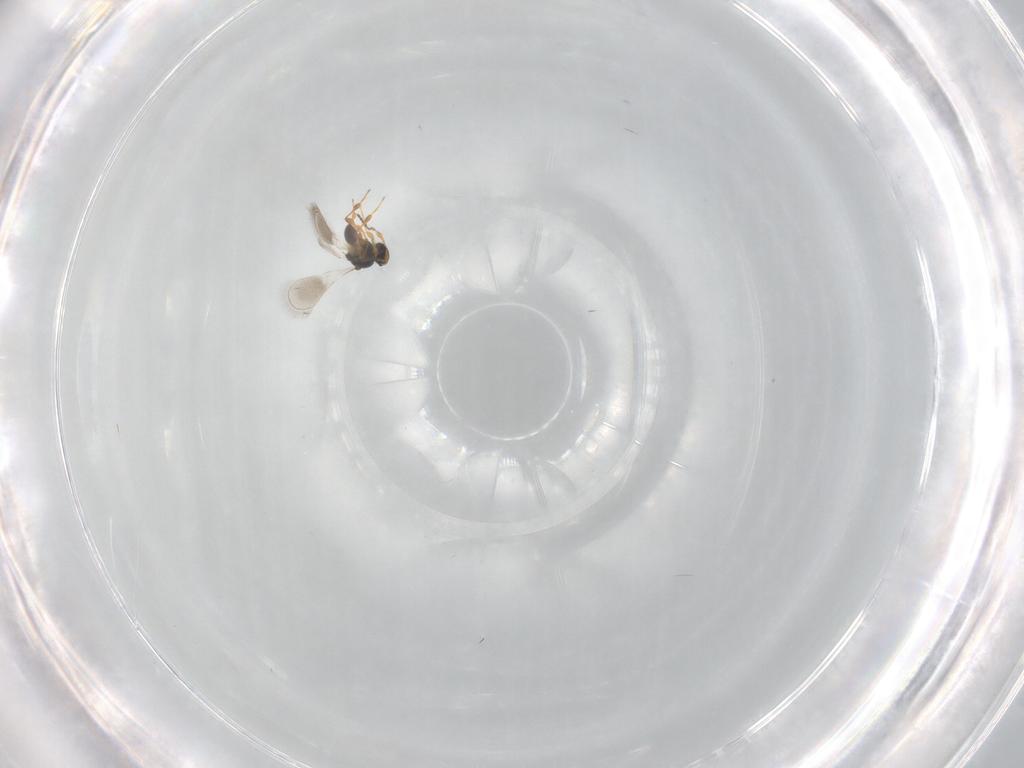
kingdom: Animalia
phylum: Arthropoda
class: Insecta
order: Hymenoptera
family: Platygastridae
